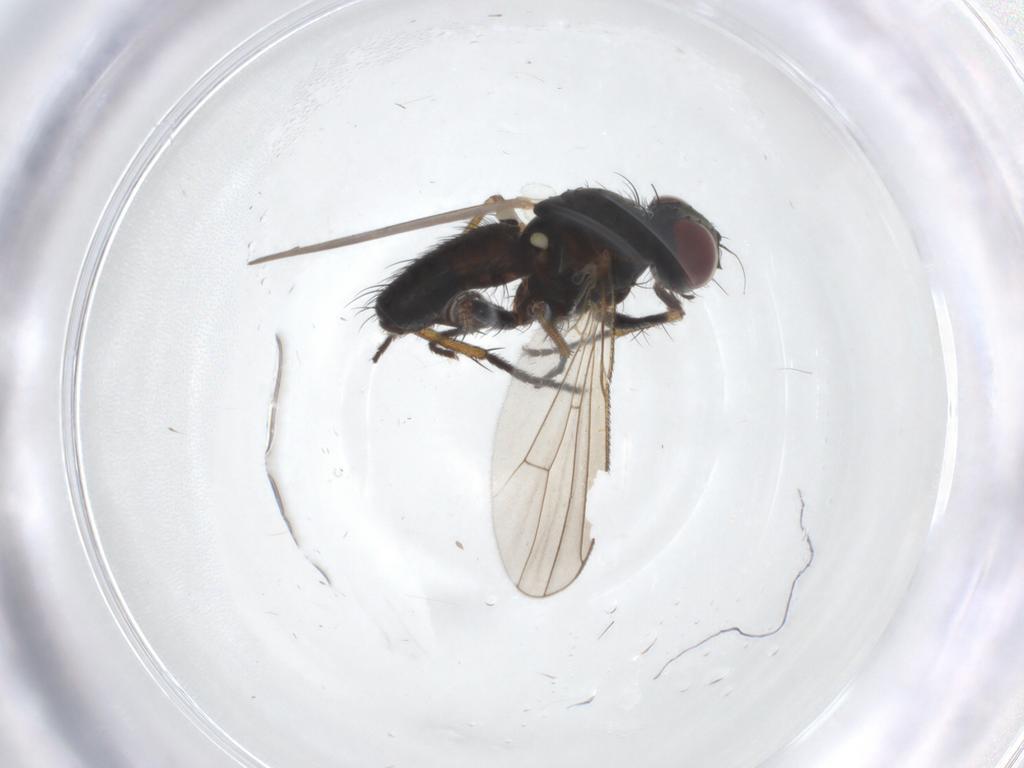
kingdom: Animalia
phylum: Arthropoda
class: Insecta
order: Diptera
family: Muscidae
